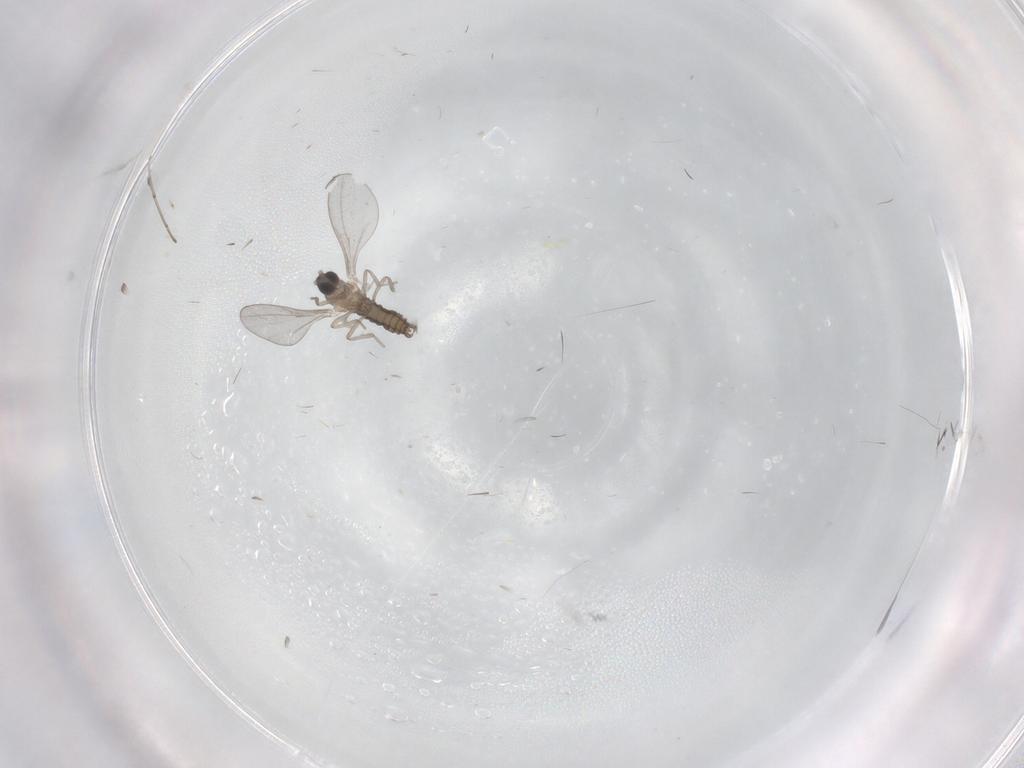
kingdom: Animalia
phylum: Arthropoda
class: Insecta
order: Diptera
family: Cecidomyiidae
